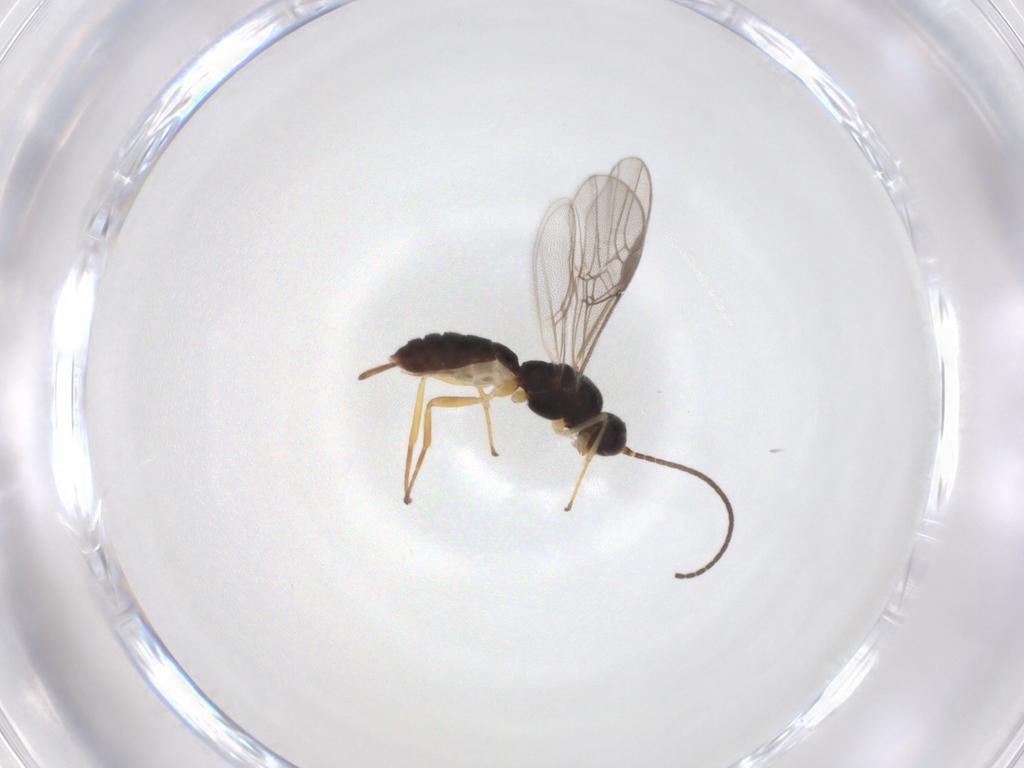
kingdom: Animalia
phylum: Arthropoda
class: Insecta
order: Hymenoptera
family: Braconidae
